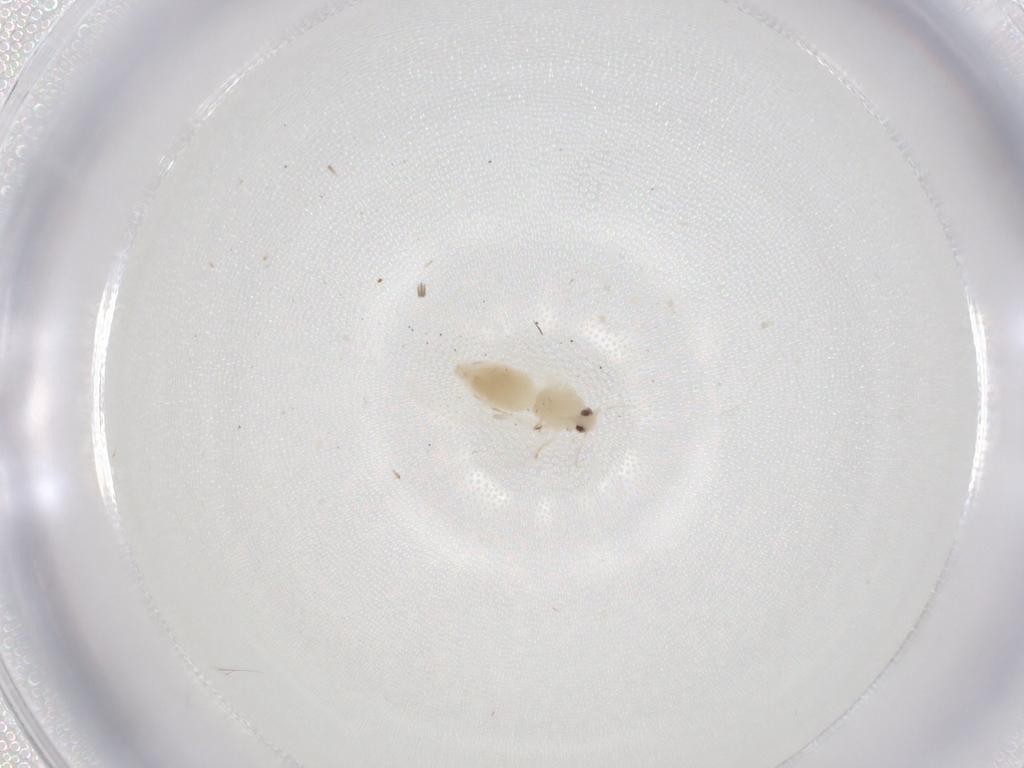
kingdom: Animalia
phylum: Arthropoda
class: Insecta
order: Hemiptera
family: Aleyrodidae
